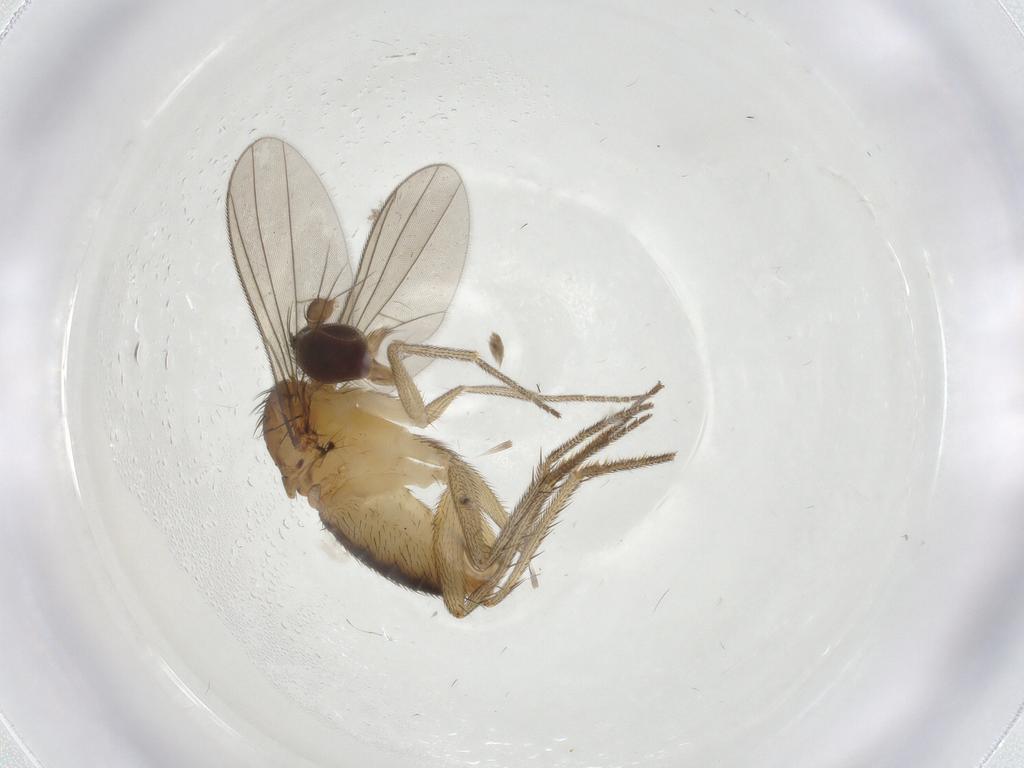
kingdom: Animalia
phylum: Arthropoda
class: Insecta
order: Diptera
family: Dolichopodidae
